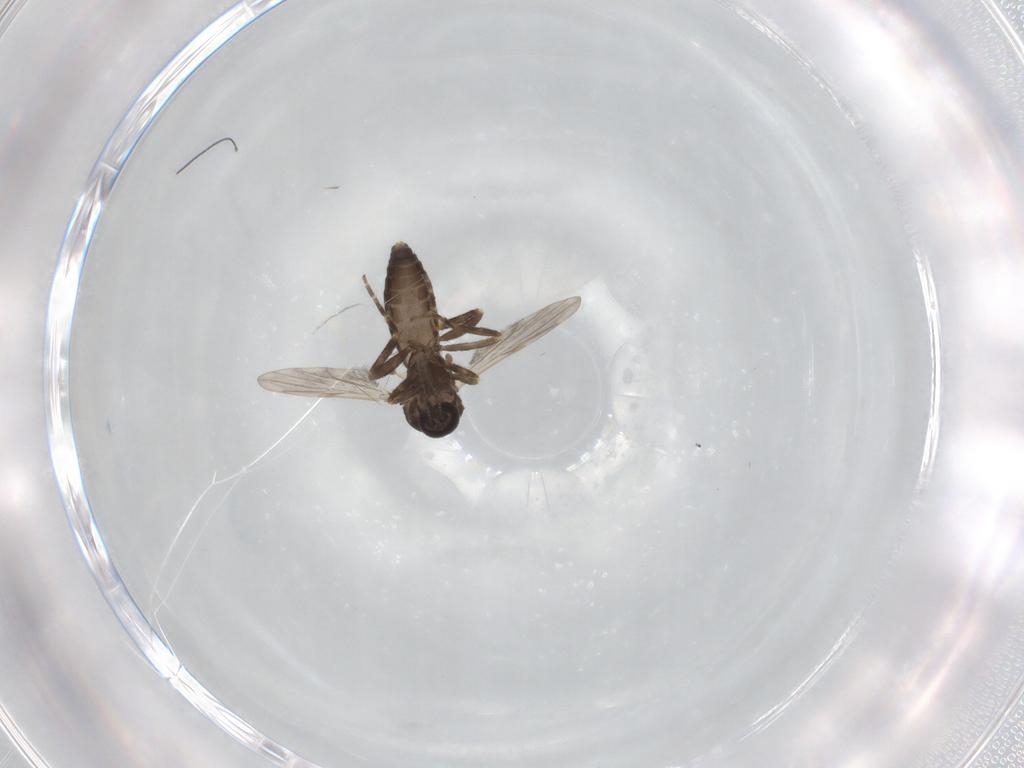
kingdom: Animalia
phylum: Arthropoda
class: Insecta
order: Diptera
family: Ceratopogonidae
